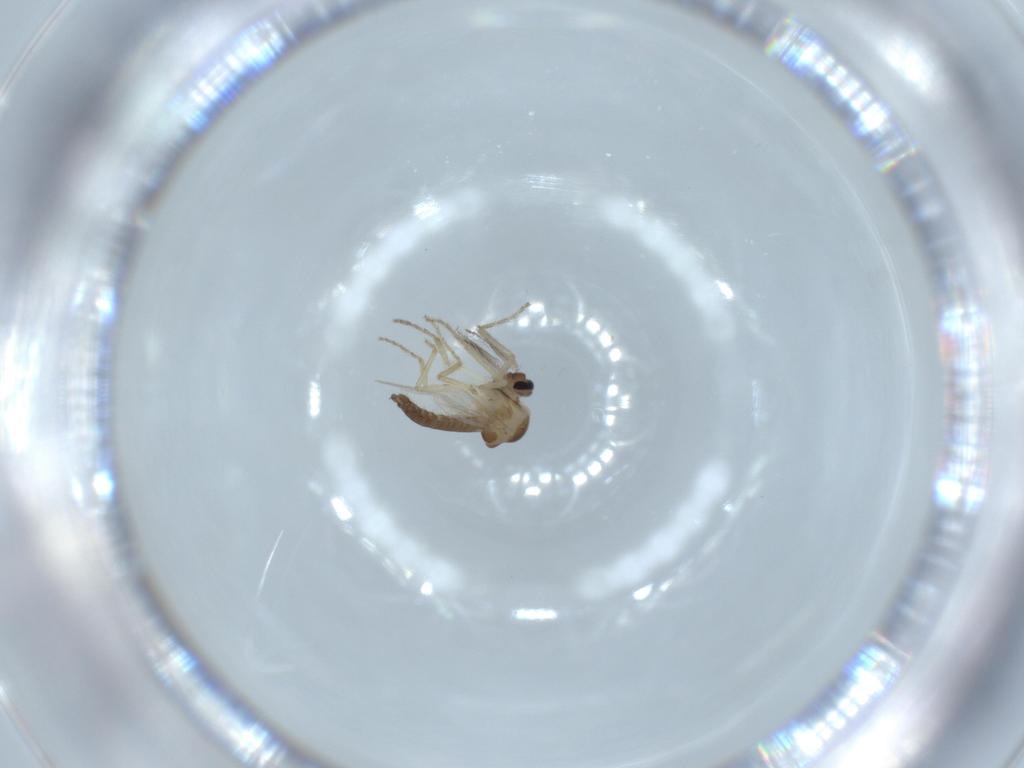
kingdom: Animalia
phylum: Arthropoda
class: Insecta
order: Diptera
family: Ceratopogonidae
